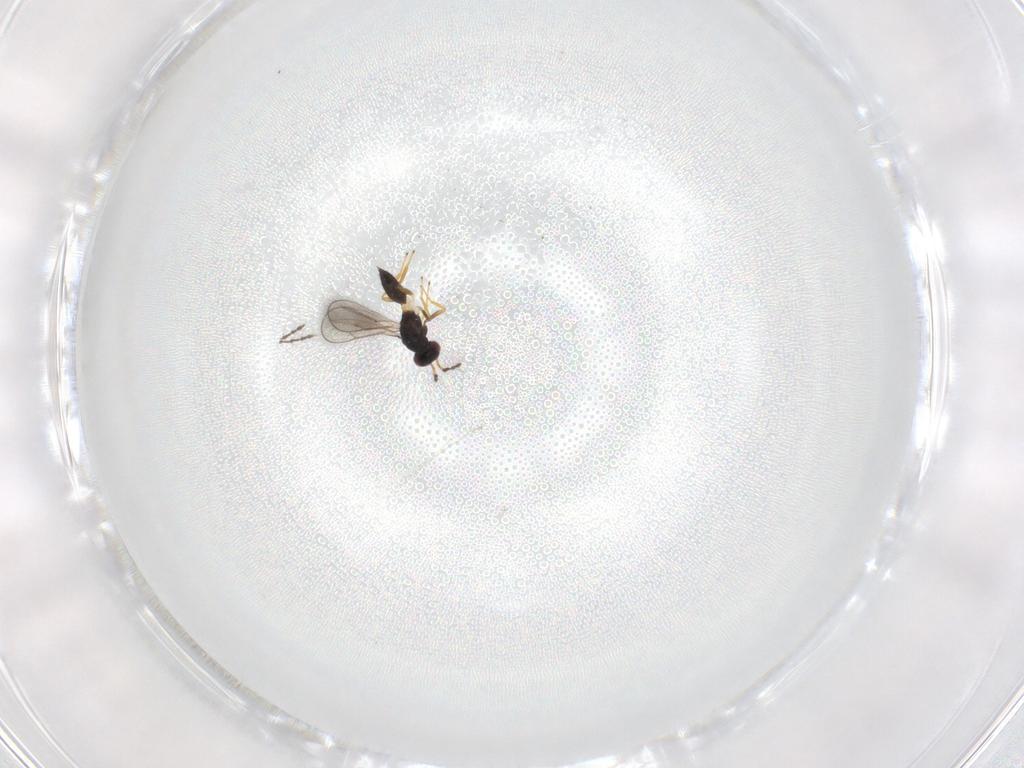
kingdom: Animalia
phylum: Arthropoda
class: Insecta
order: Hymenoptera
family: Eulophidae
